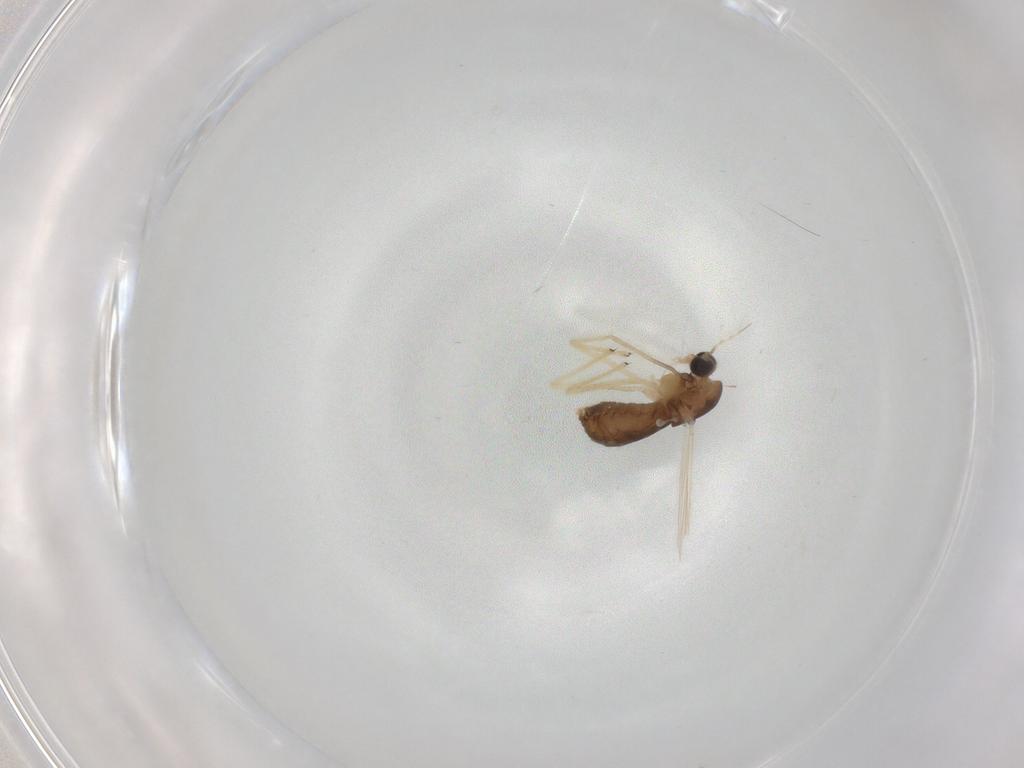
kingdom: Animalia
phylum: Arthropoda
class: Insecta
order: Diptera
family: Chironomidae
